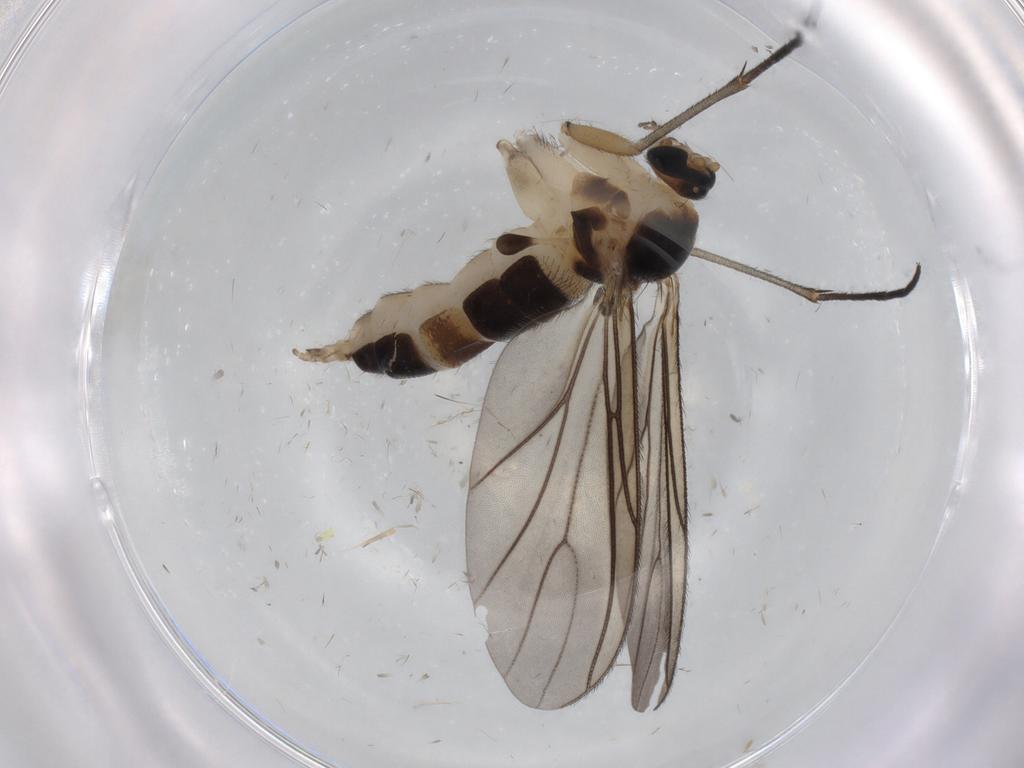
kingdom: Animalia
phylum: Arthropoda
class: Insecta
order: Diptera
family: Sciaridae
